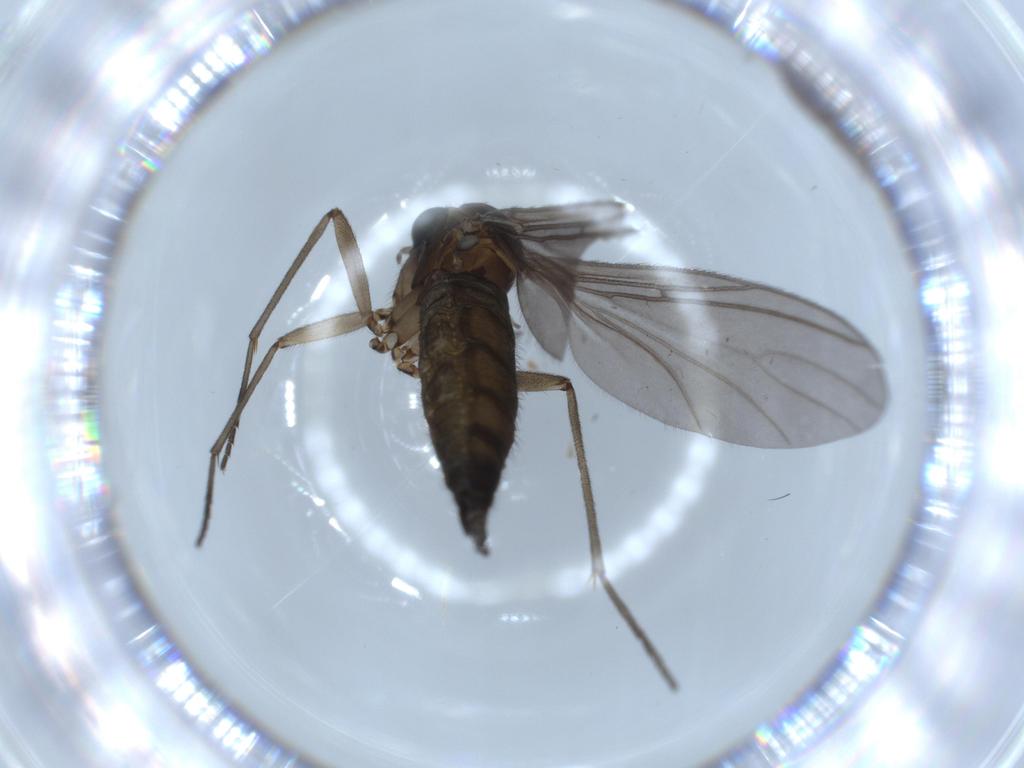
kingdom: Animalia
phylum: Arthropoda
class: Insecta
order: Diptera
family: Sciaridae
